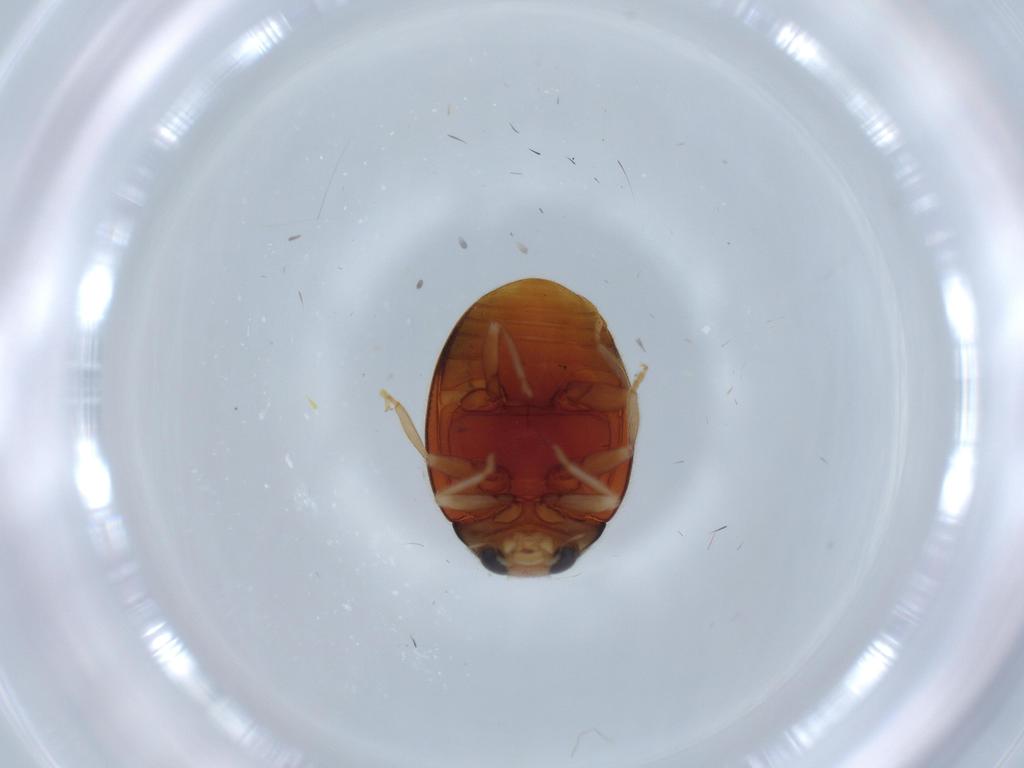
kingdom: Animalia
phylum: Arthropoda
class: Insecta
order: Coleoptera
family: Coccinellidae
